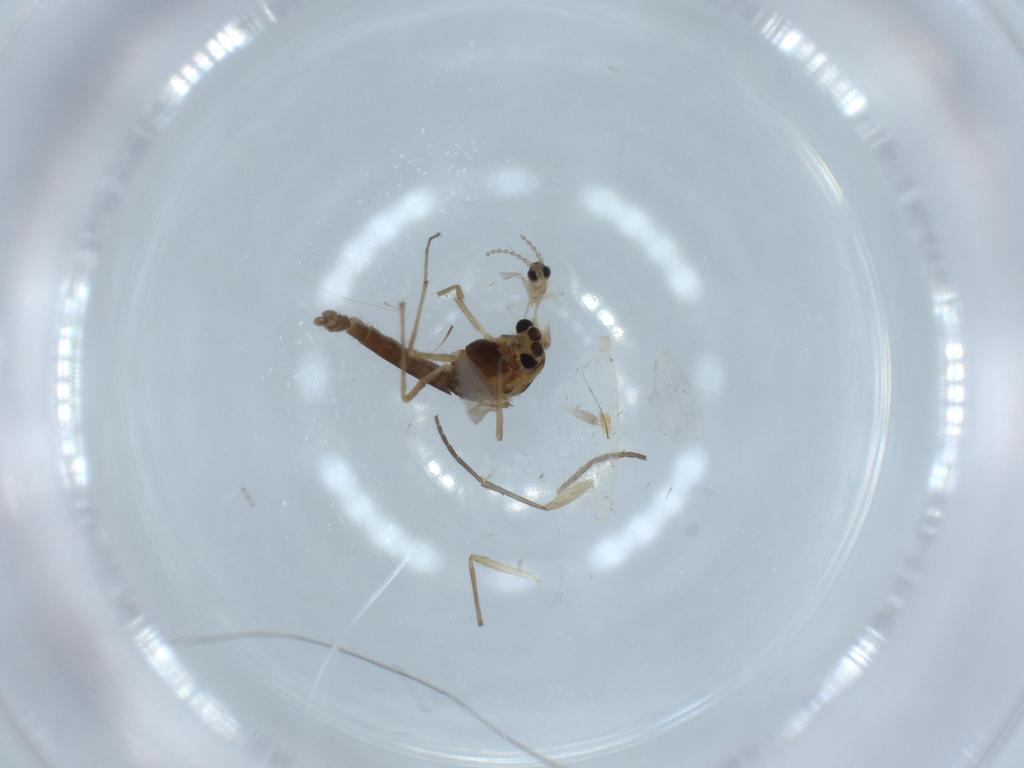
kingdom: Animalia
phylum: Arthropoda
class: Insecta
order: Diptera
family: Chironomidae
